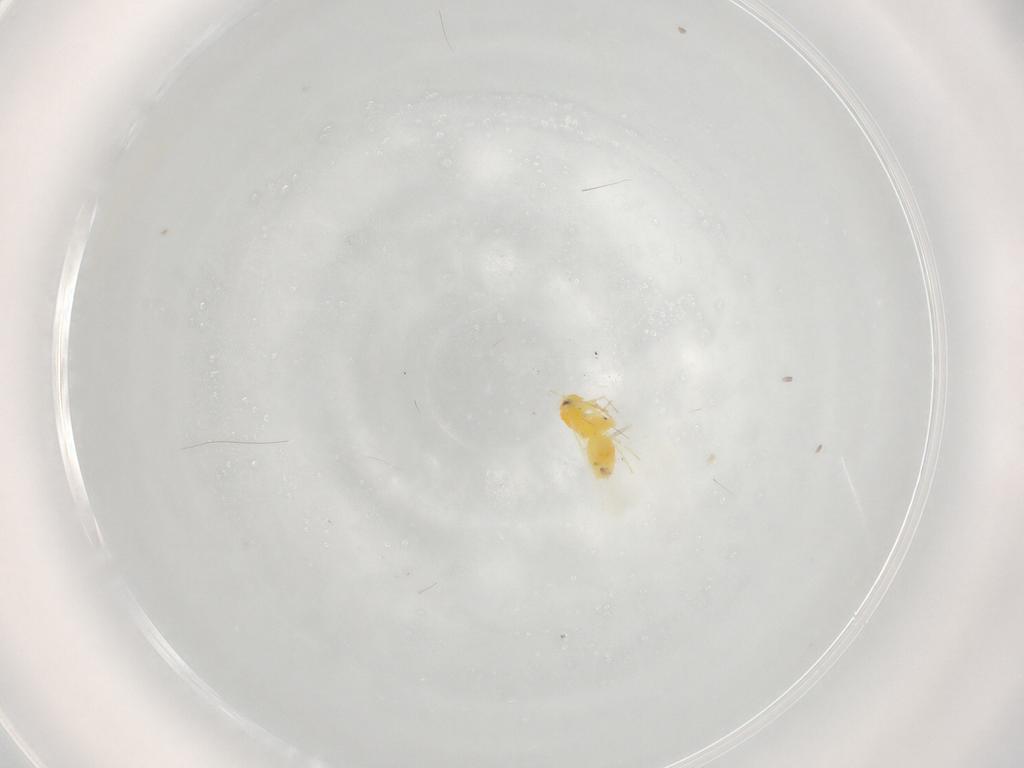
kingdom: Animalia
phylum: Arthropoda
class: Insecta
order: Hemiptera
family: Aleyrodidae
